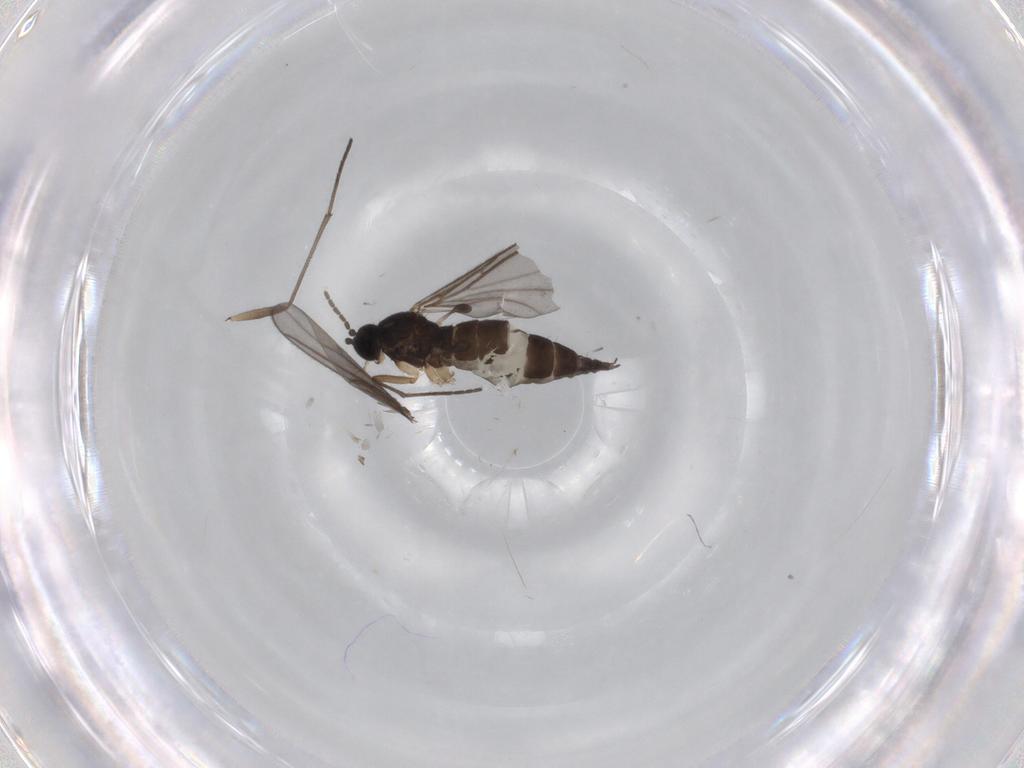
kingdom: Animalia
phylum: Arthropoda
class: Insecta
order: Diptera
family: Sciaridae
